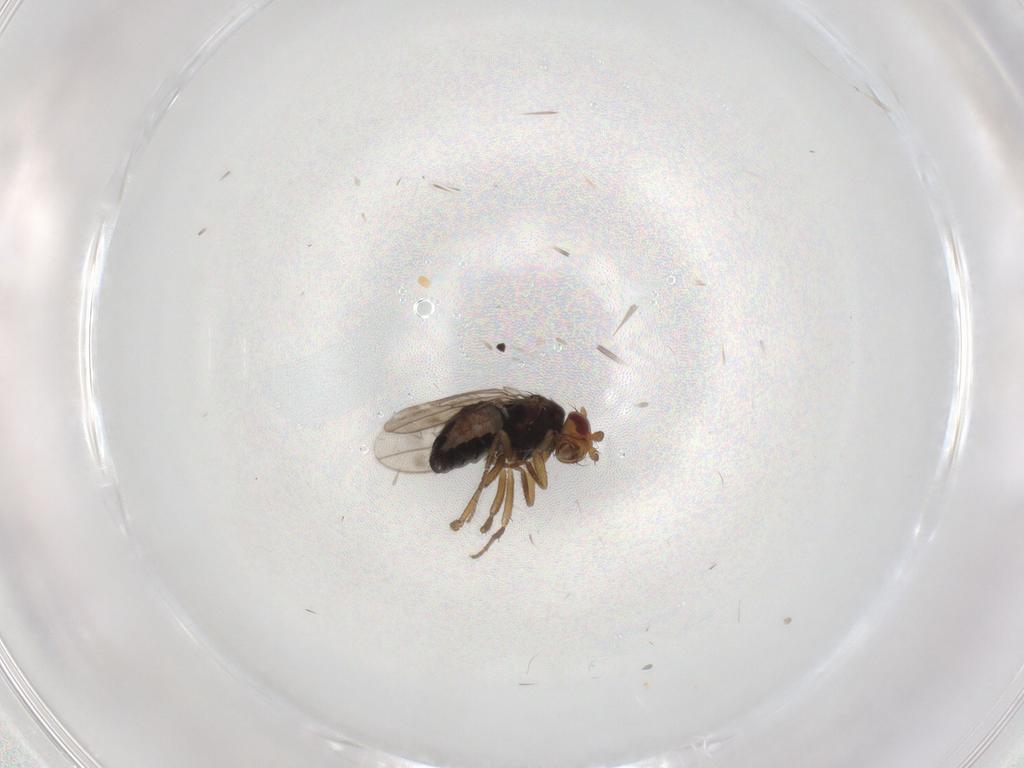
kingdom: Animalia
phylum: Arthropoda
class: Insecta
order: Diptera
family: Sphaeroceridae
